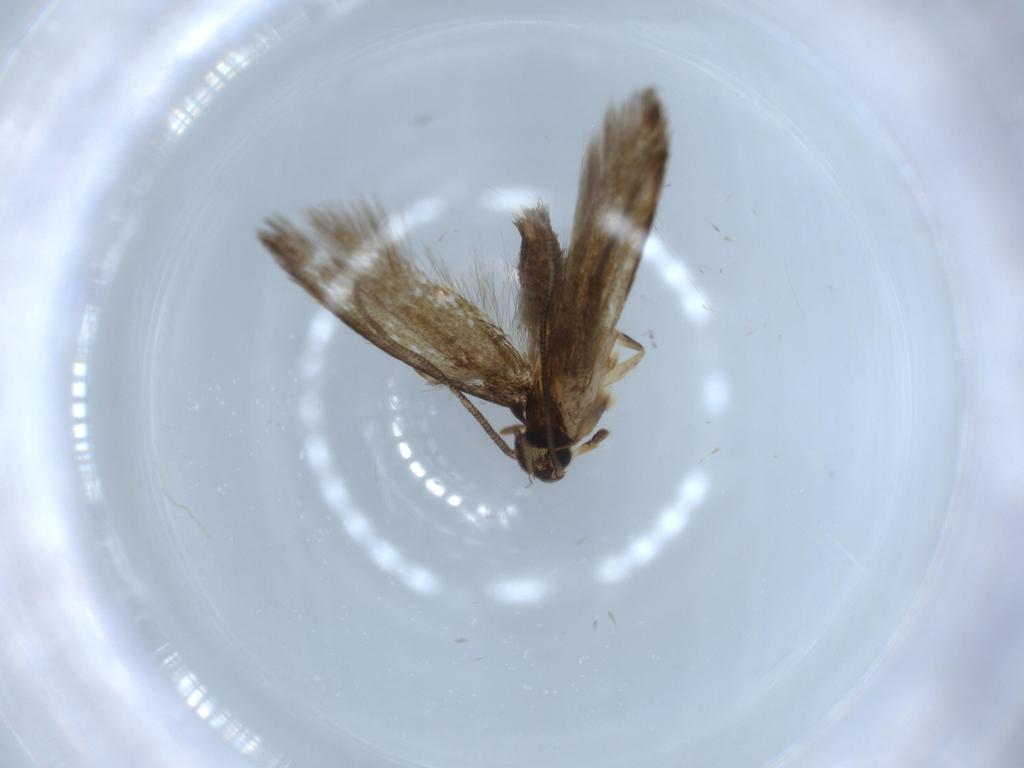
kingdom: Animalia
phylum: Arthropoda
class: Insecta
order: Lepidoptera
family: Tineidae
